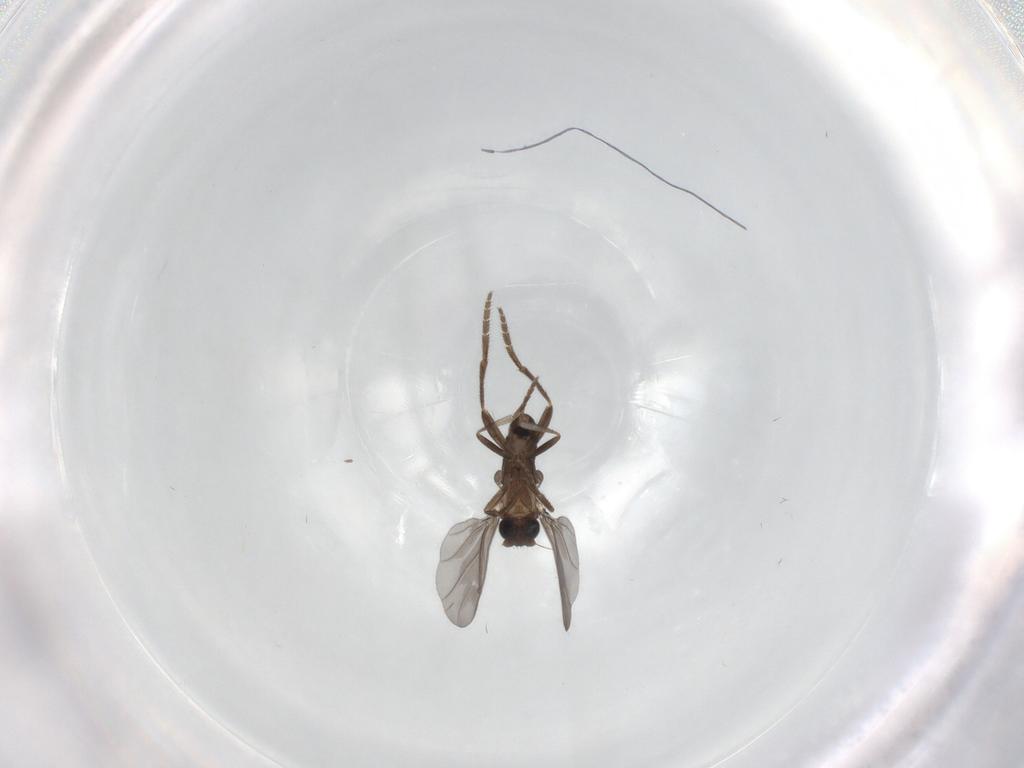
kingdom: Animalia
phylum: Arthropoda
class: Insecta
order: Diptera
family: Phoridae
